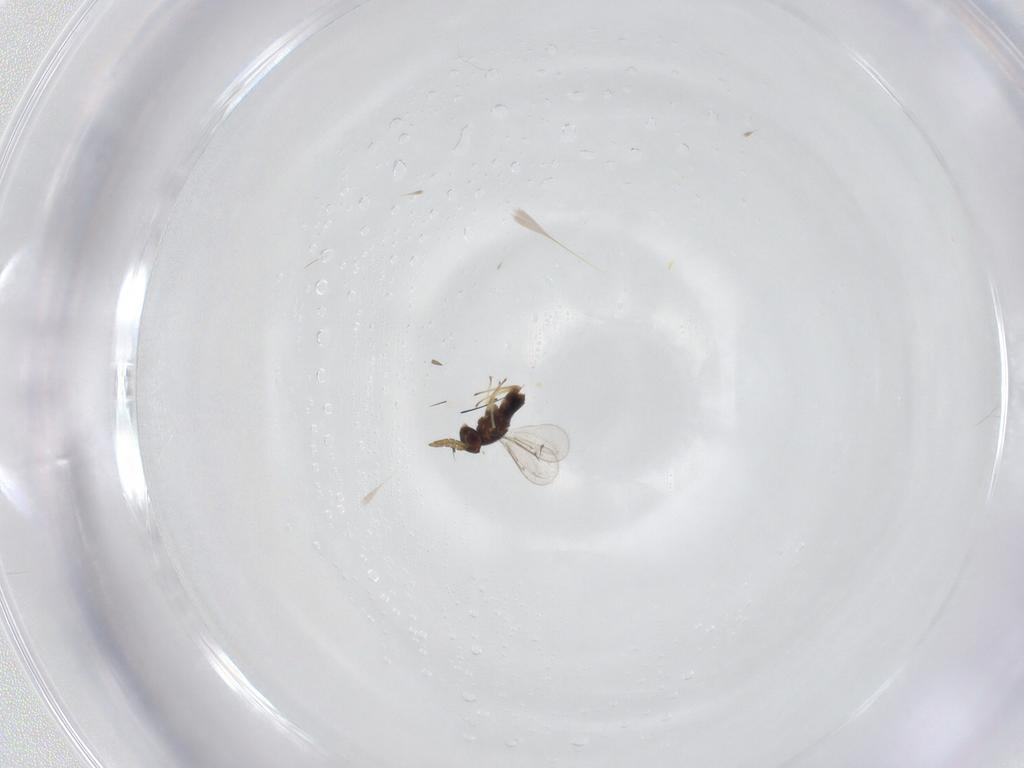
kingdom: Animalia
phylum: Arthropoda
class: Insecta
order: Hymenoptera
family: Aphelinidae
